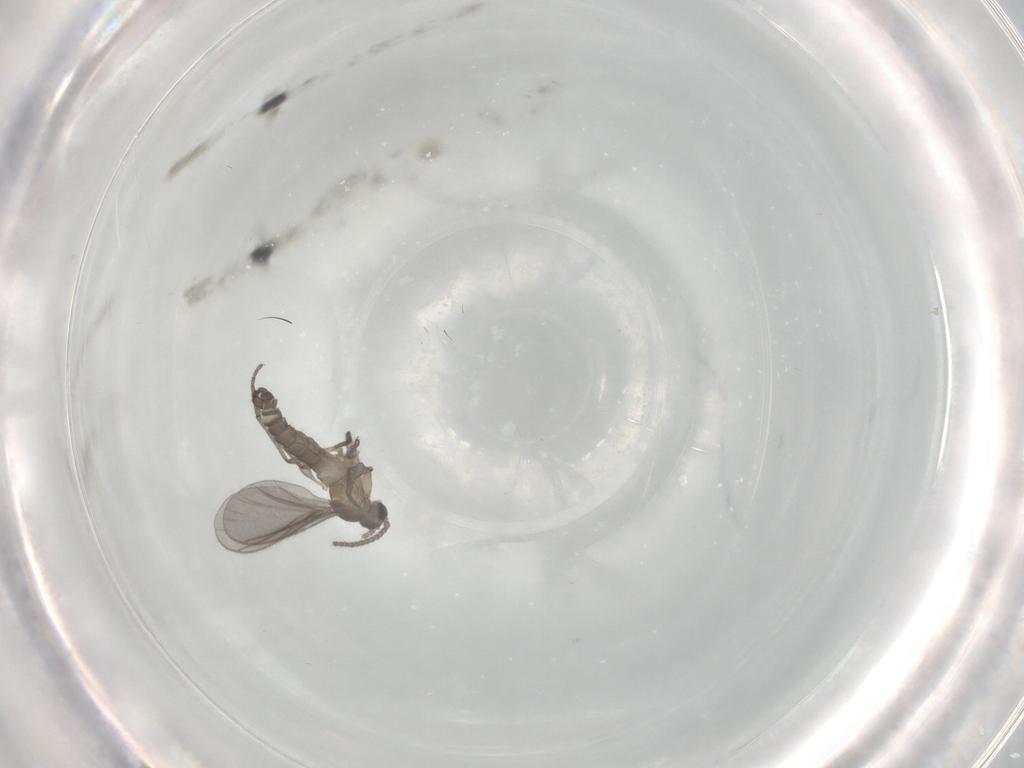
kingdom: Animalia
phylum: Arthropoda
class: Insecta
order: Diptera
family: Sciaridae
